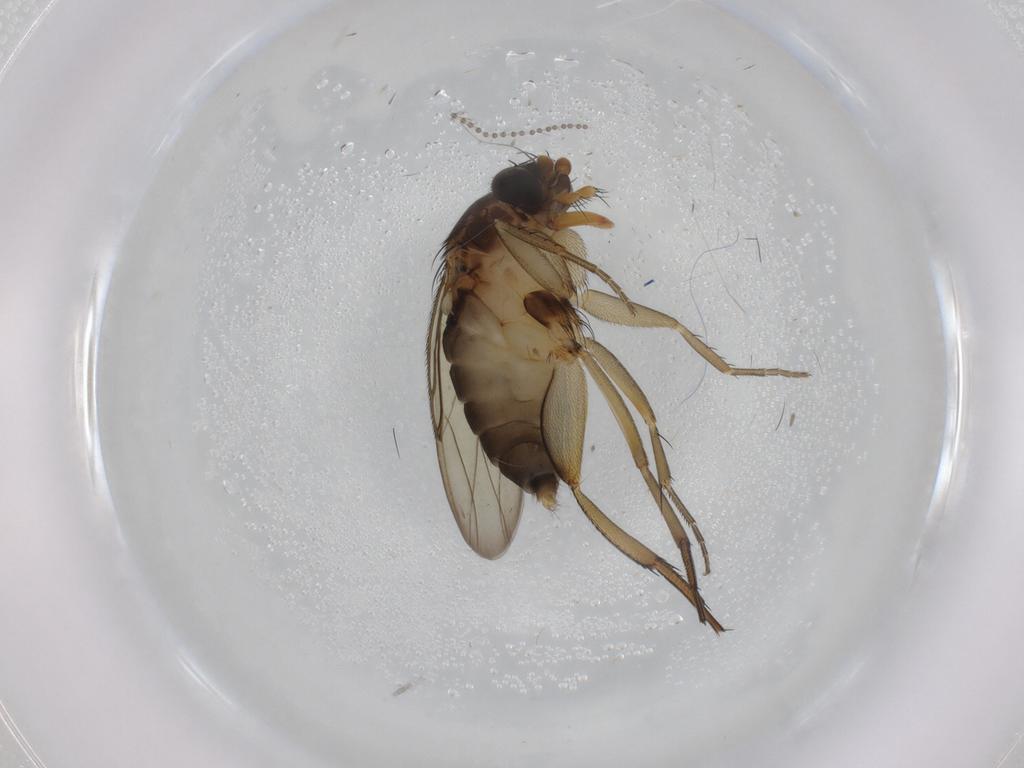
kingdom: Animalia
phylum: Arthropoda
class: Insecta
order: Diptera
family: Phoridae
